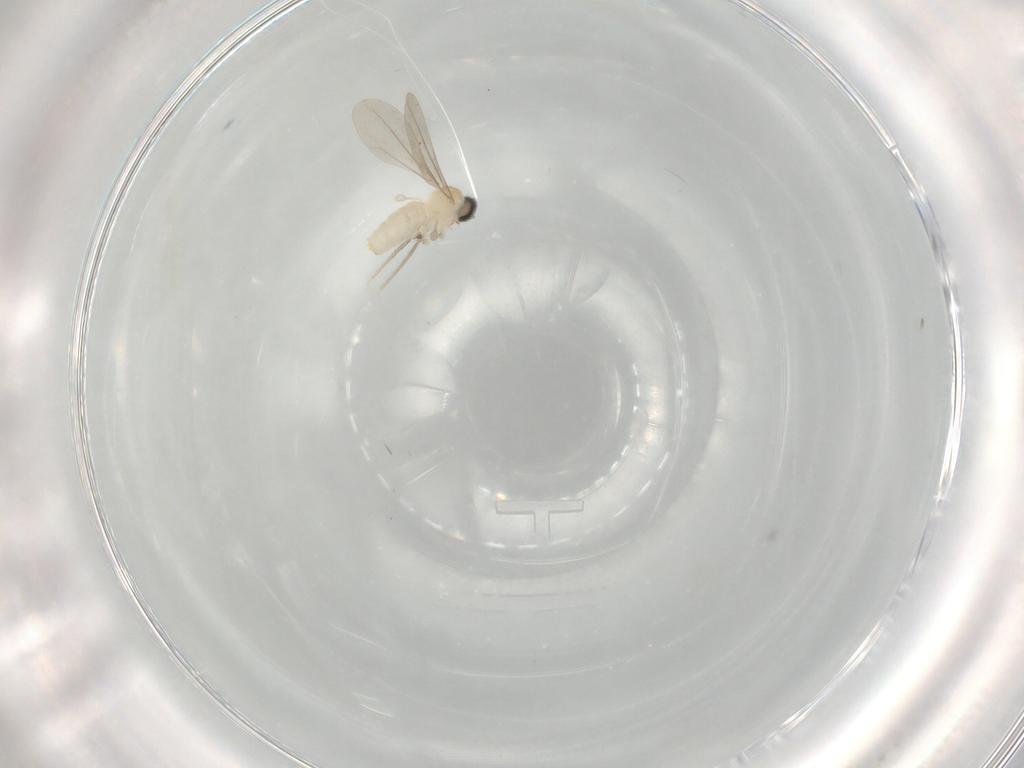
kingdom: Animalia
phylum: Arthropoda
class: Insecta
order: Diptera
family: Cecidomyiidae
